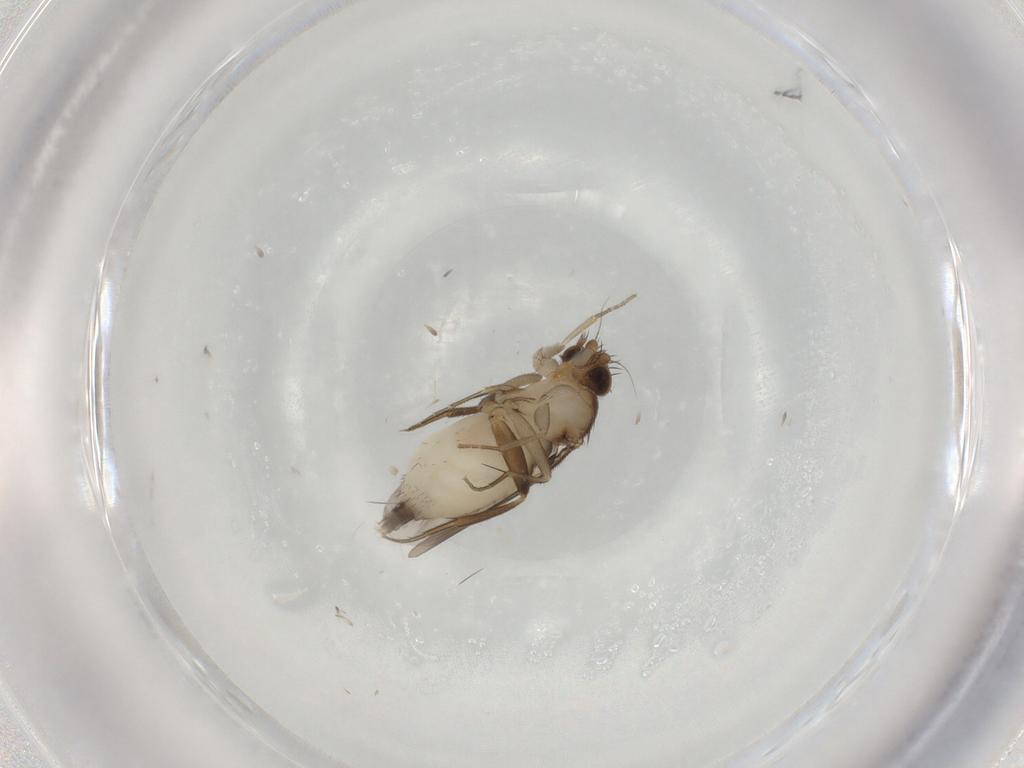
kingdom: Animalia
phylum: Arthropoda
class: Insecta
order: Diptera
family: Phoridae
